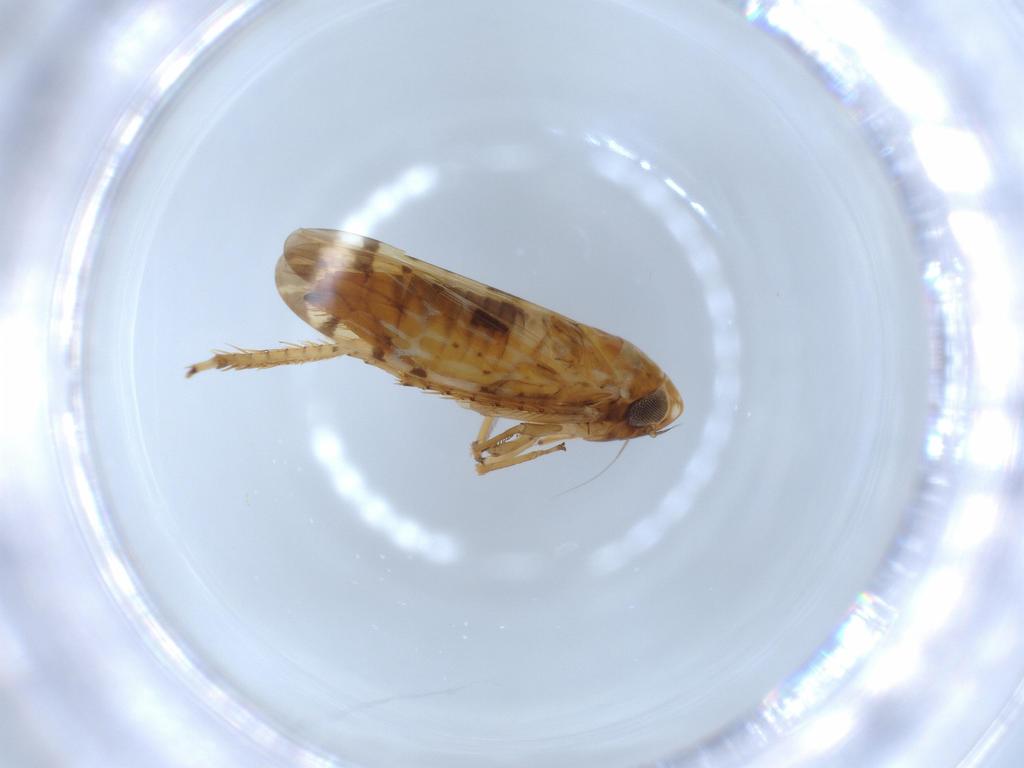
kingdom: Animalia
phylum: Arthropoda
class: Insecta
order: Hemiptera
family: Cicadellidae
